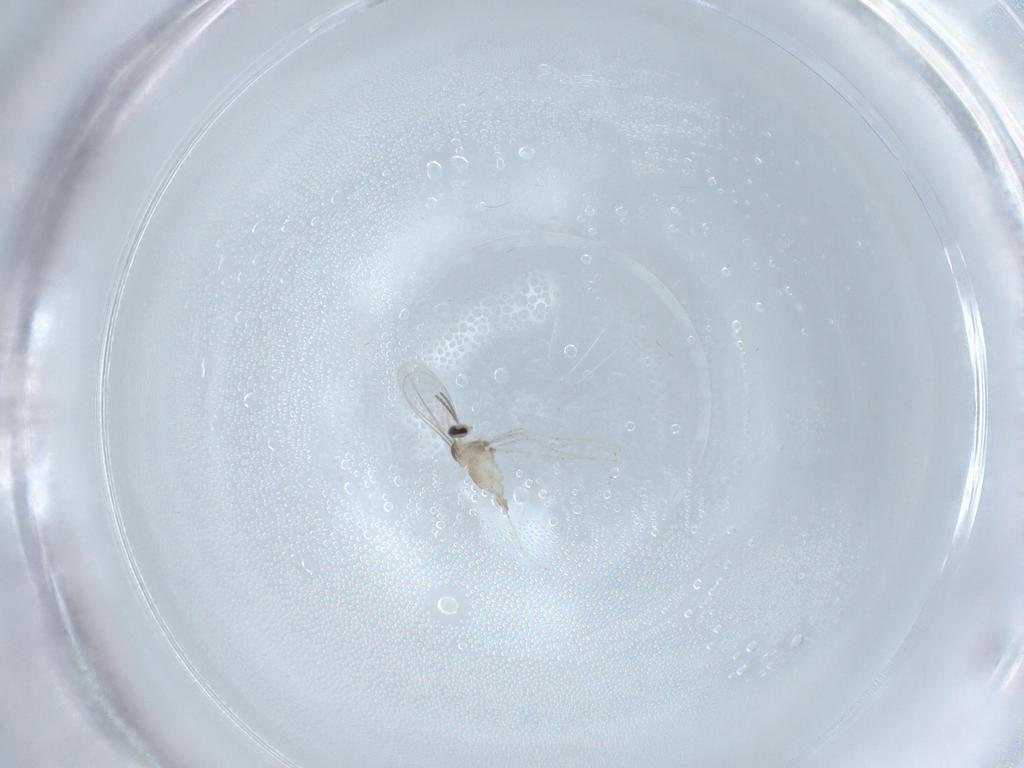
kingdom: Animalia
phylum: Arthropoda
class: Insecta
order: Diptera
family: Cecidomyiidae
